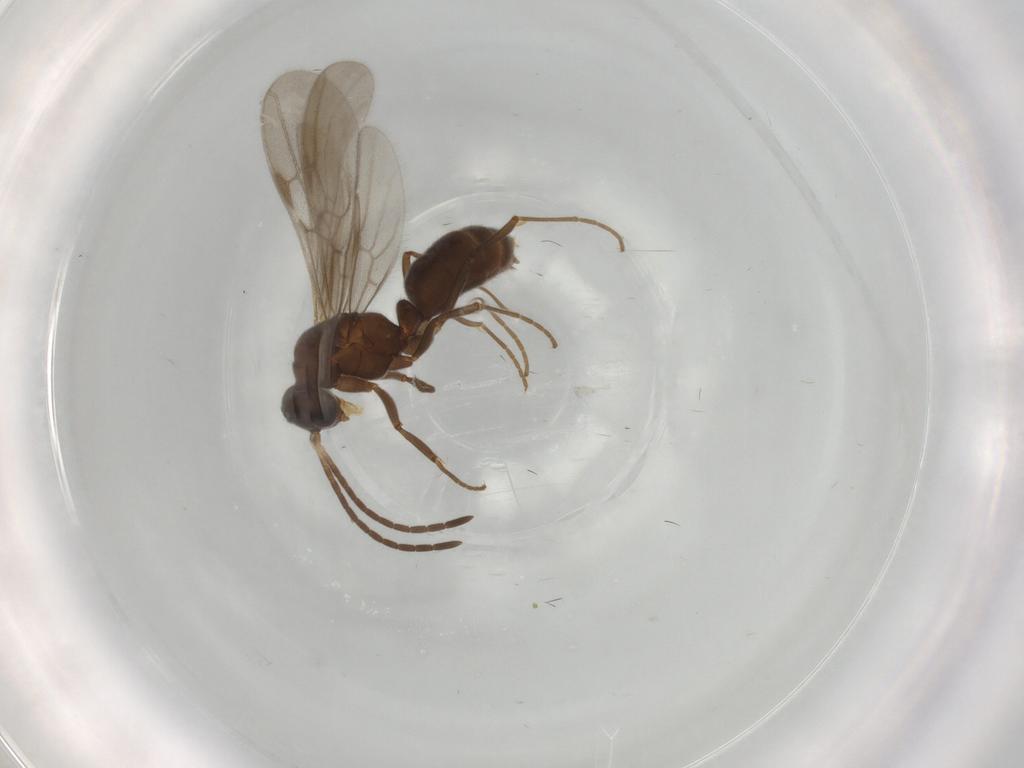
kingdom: Animalia
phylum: Arthropoda
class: Insecta
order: Hymenoptera
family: Formicidae
